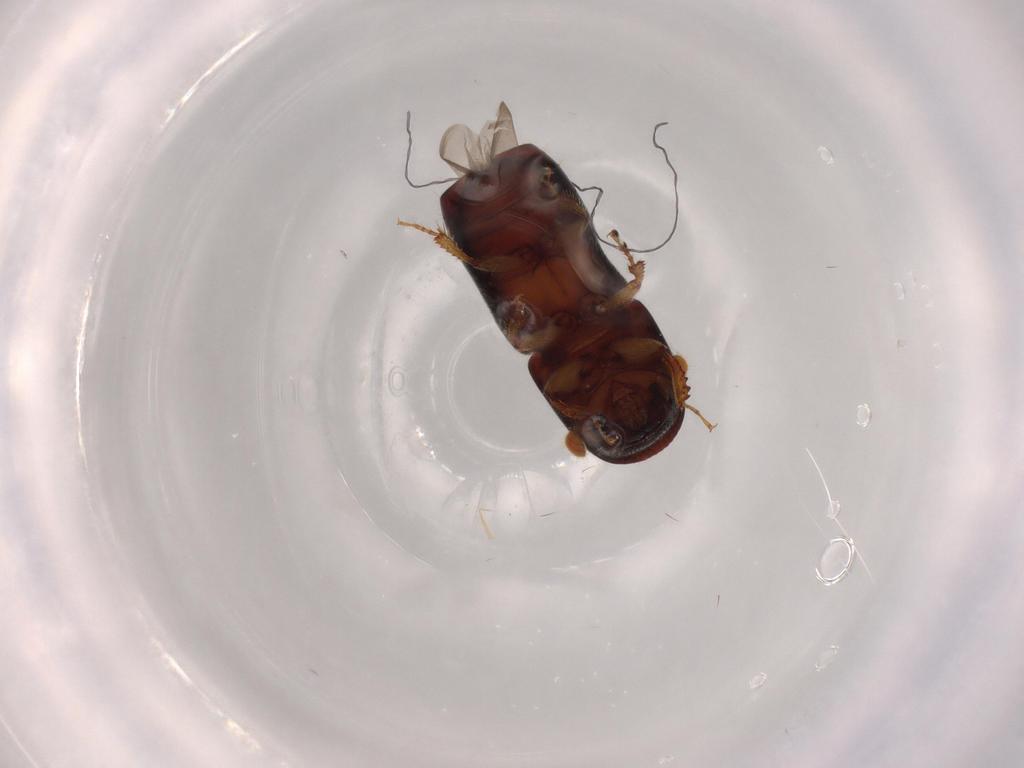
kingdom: Animalia
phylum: Arthropoda
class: Insecta
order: Coleoptera
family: Curculionidae
